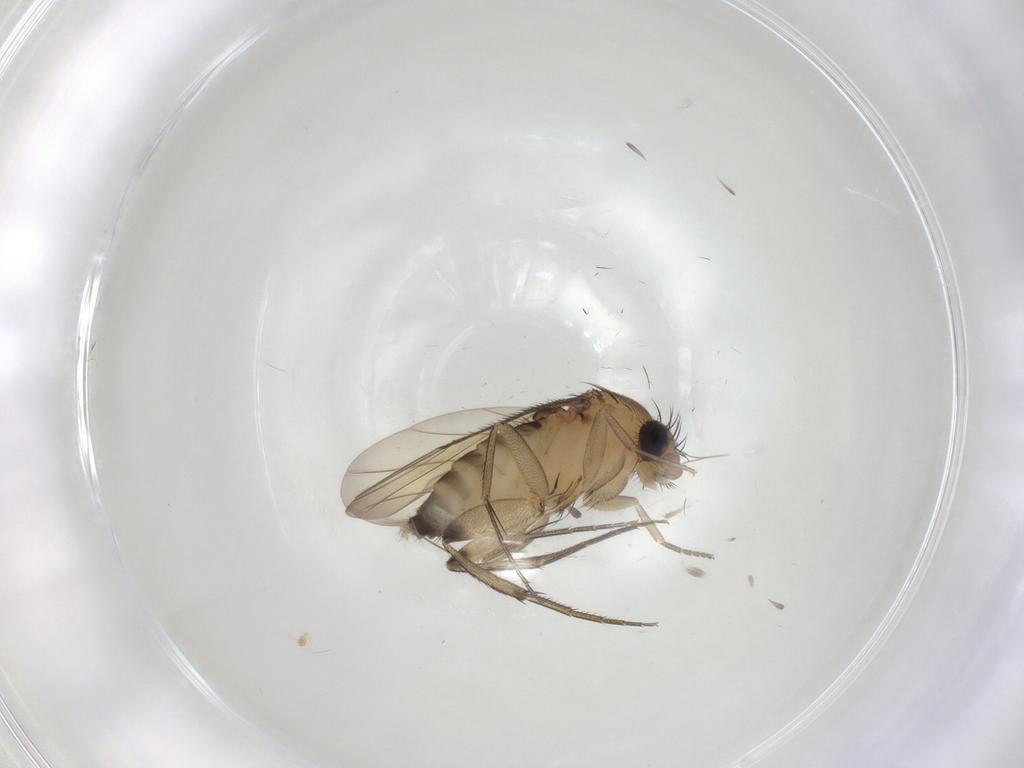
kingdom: Animalia
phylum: Arthropoda
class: Insecta
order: Diptera
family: Phoridae
